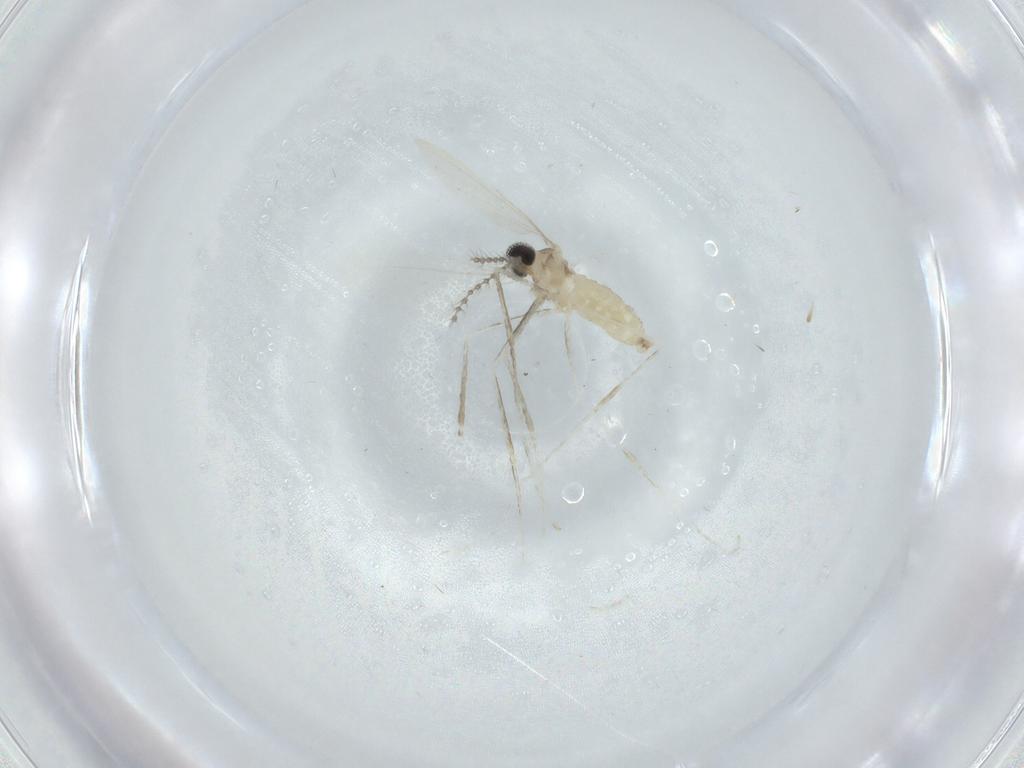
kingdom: Animalia
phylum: Arthropoda
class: Insecta
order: Diptera
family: Cecidomyiidae
